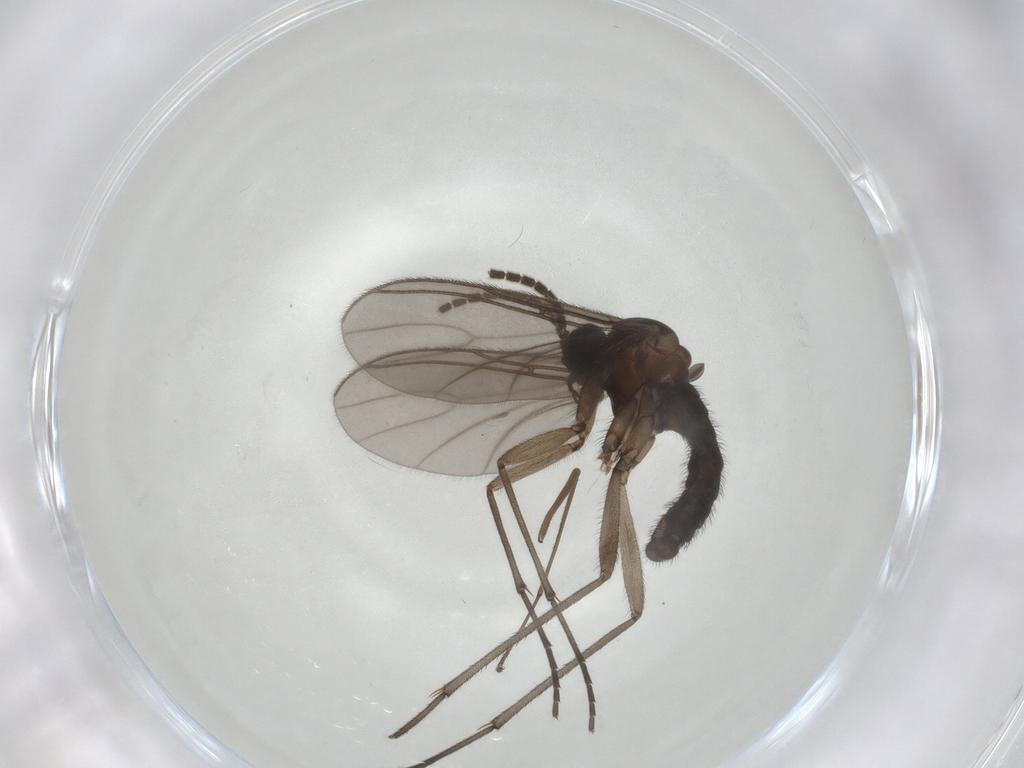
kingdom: Animalia
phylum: Arthropoda
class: Insecta
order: Diptera
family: Sciaridae
